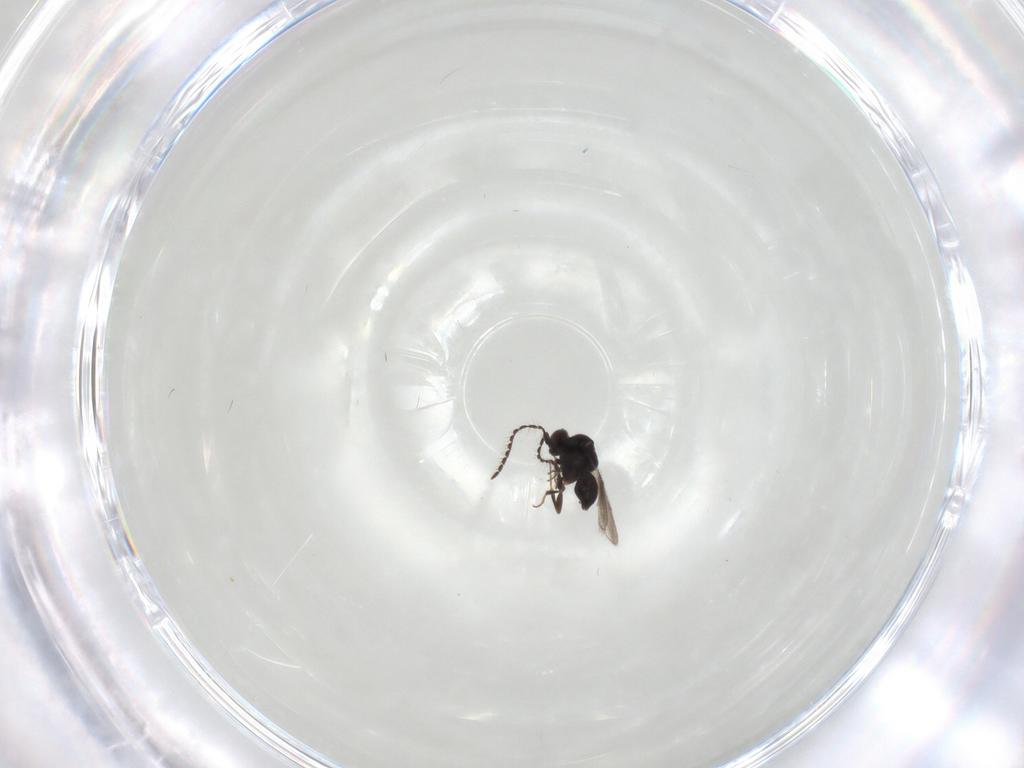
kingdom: Animalia
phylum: Arthropoda
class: Insecta
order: Hymenoptera
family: Ceraphronidae
